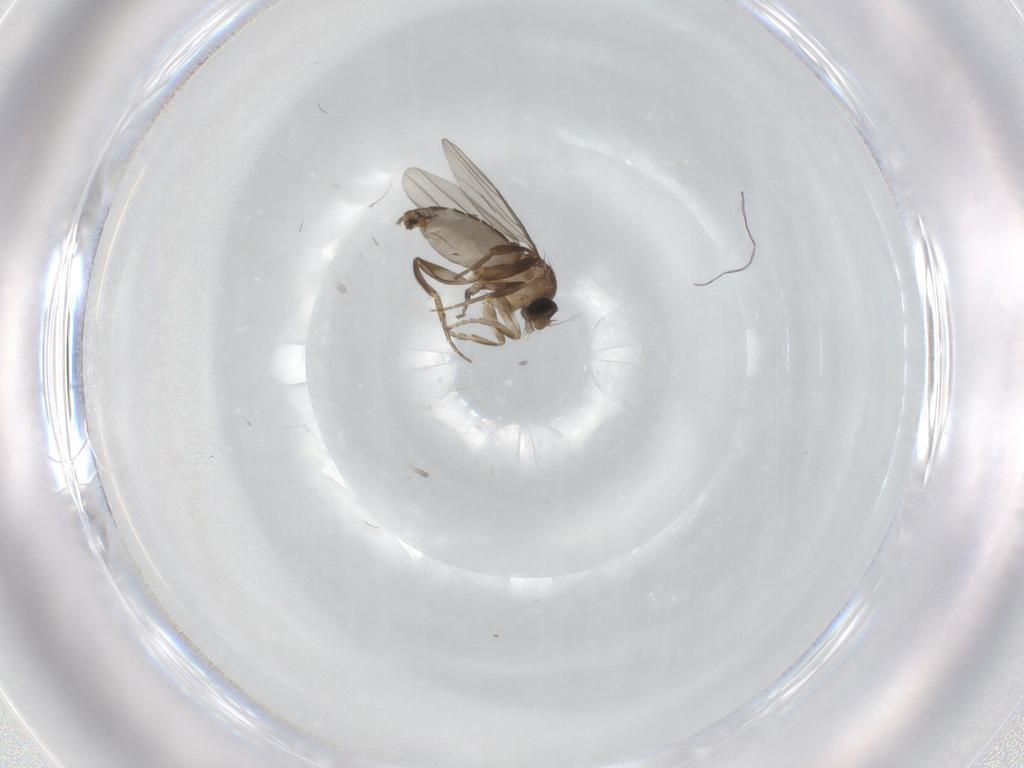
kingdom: Animalia
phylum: Arthropoda
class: Insecta
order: Diptera
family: Phoridae
